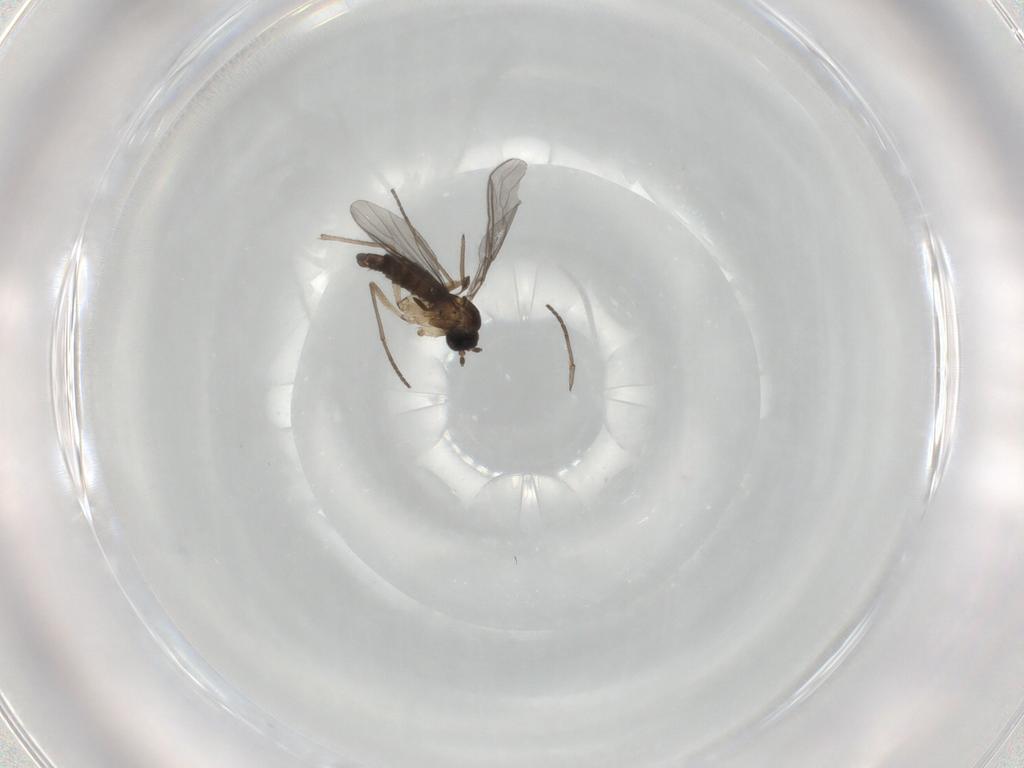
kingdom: Animalia
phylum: Arthropoda
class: Insecta
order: Diptera
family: Sciaridae
